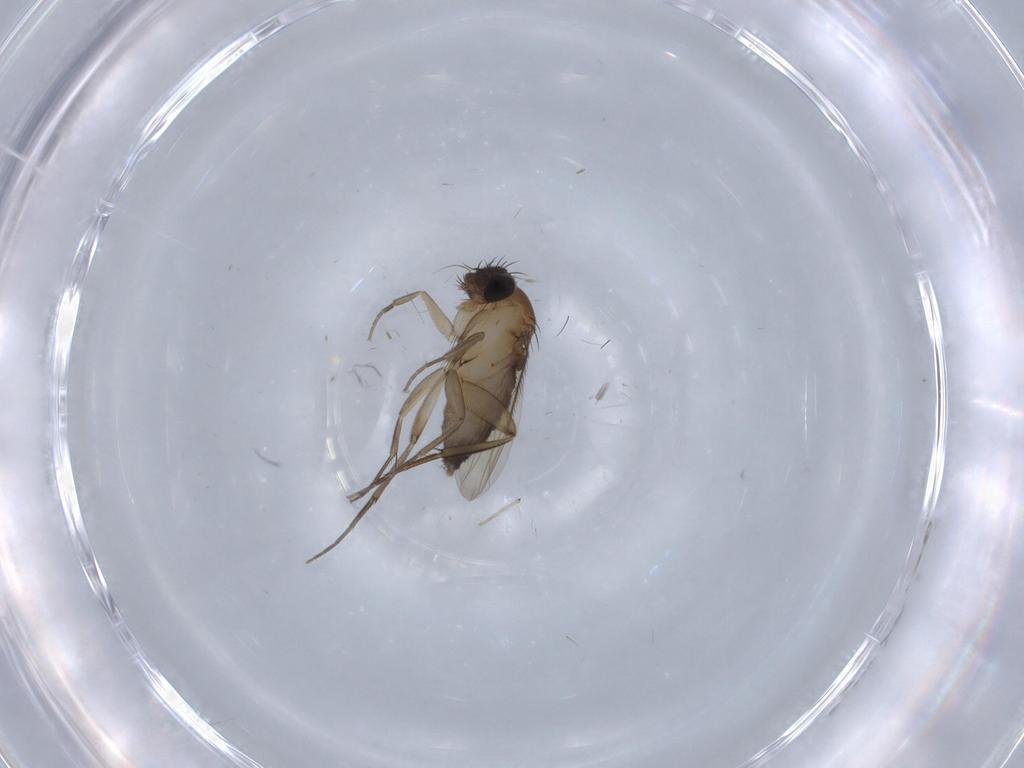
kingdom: Animalia
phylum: Arthropoda
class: Insecta
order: Diptera
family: Phoridae
